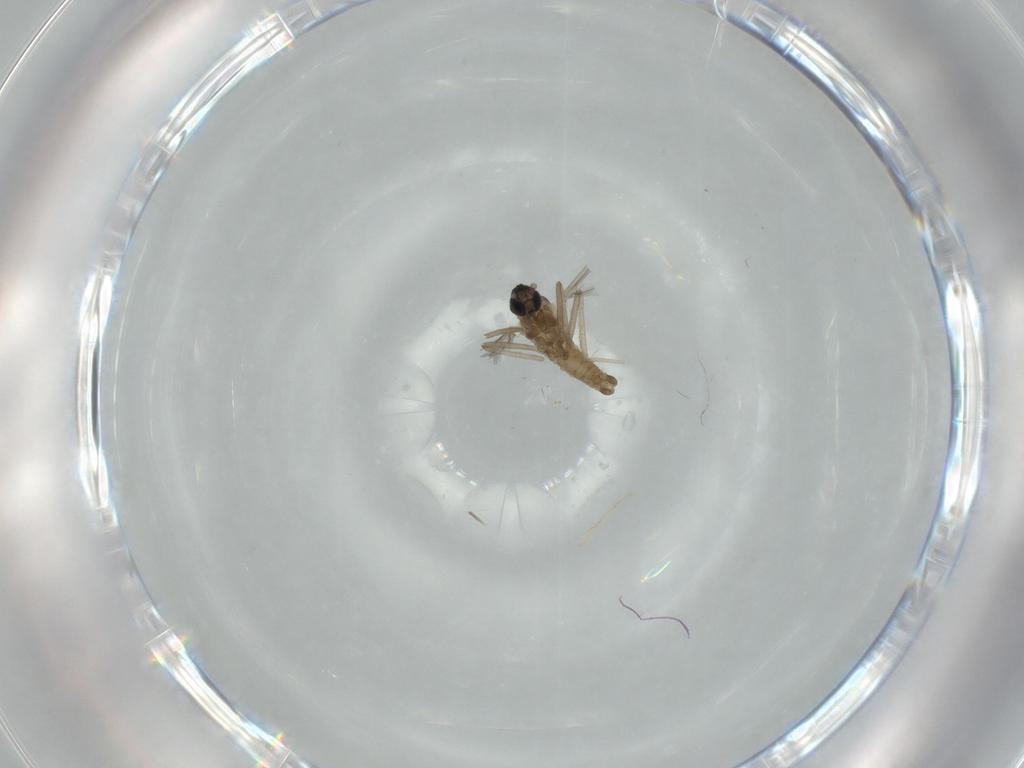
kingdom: Animalia
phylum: Arthropoda
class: Insecta
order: Diptera
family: Cecidomyiidae
